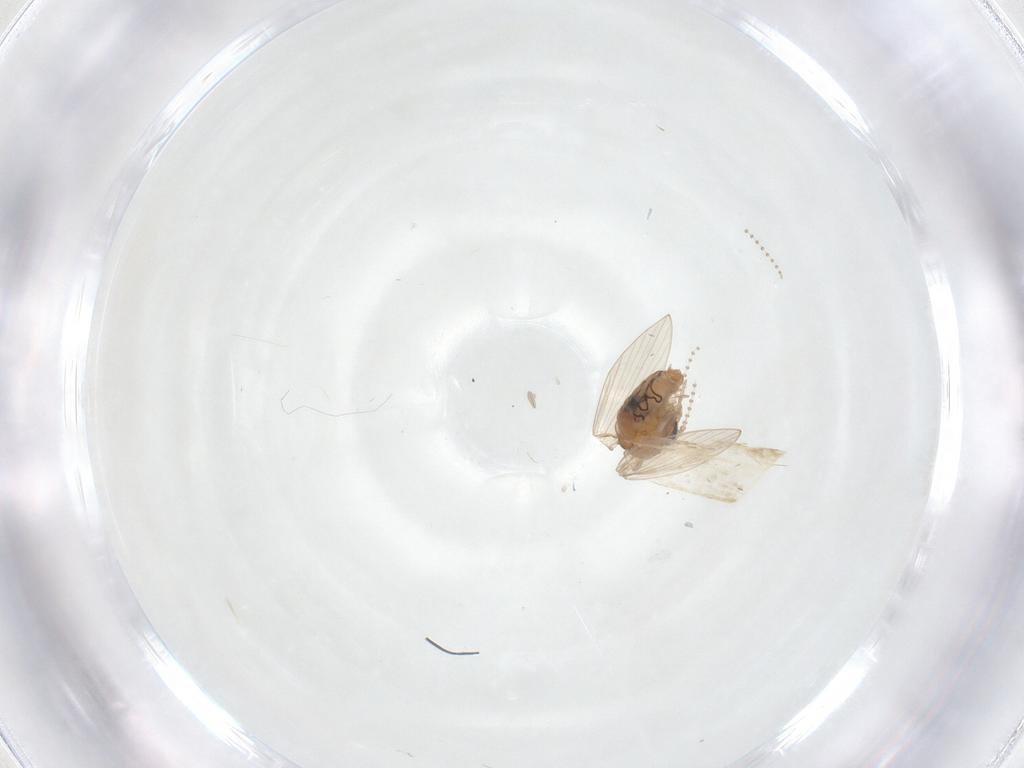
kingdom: Animalia
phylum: Arthropoda
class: Insecta
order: Diptera
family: Psychodidae
